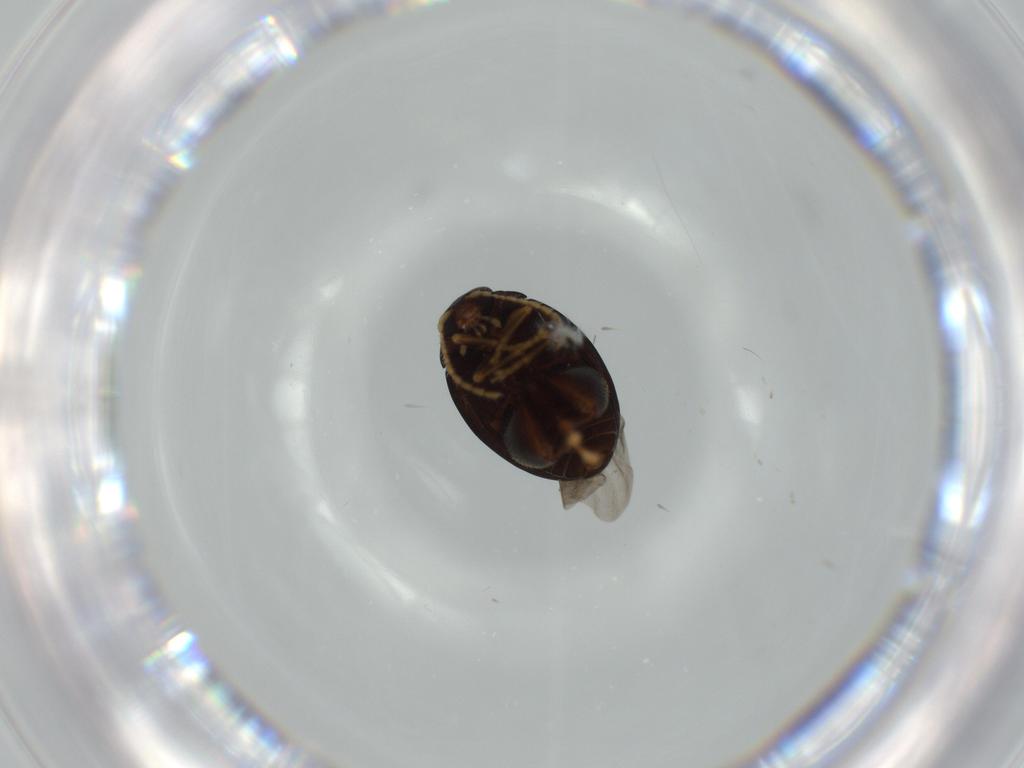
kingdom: Animalia
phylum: Arthropoda
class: Insecta
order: Coleoptera
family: Chrysomelidae
